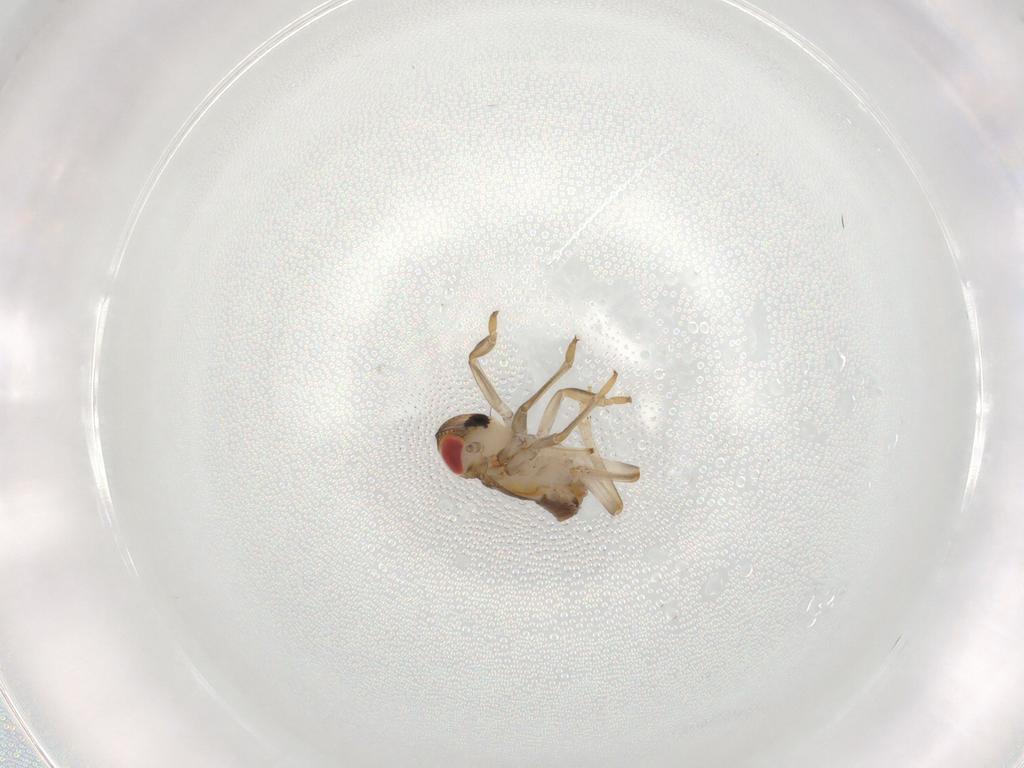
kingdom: Animalia
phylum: Arthropoda
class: Insecta
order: Hemiptera
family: Issidae
